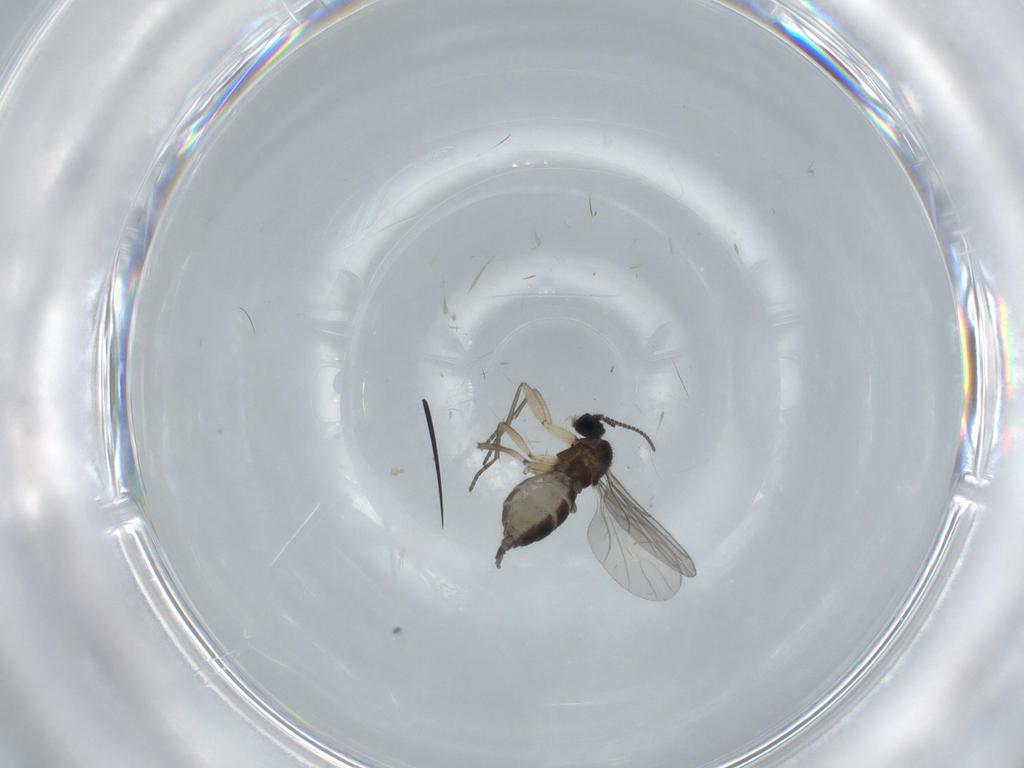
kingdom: Animalia
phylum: Arthropoda
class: Insecta
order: Diptera
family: Sciaridae
